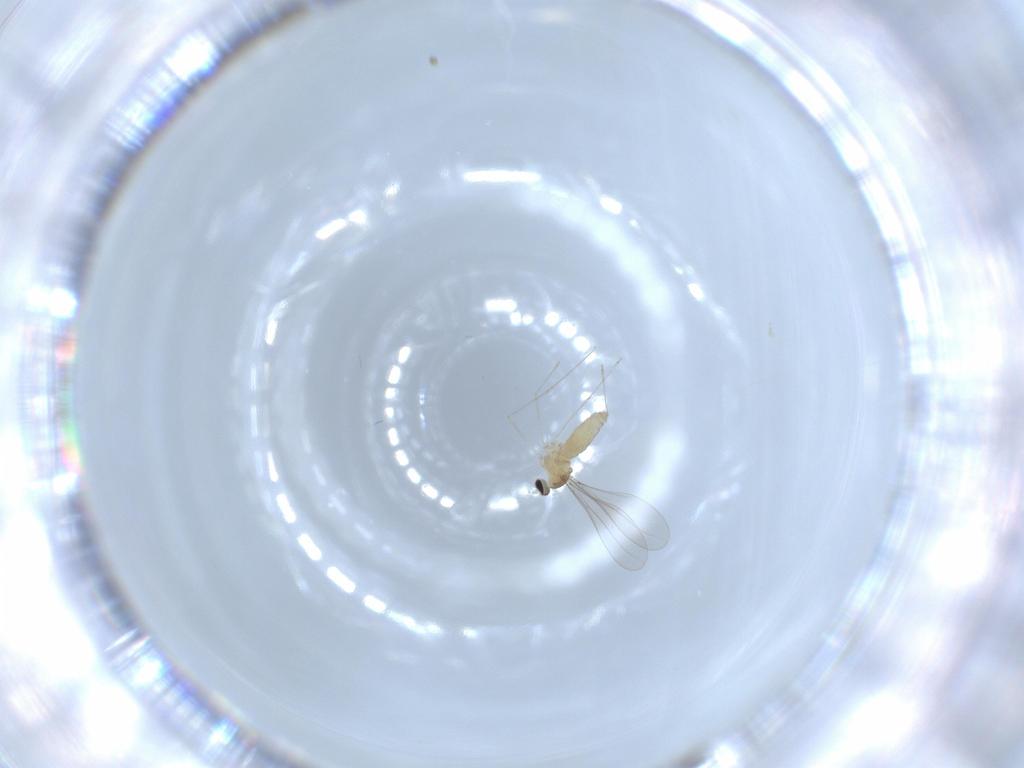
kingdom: Animalia
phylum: Arthropoda
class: Insecta
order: Diptera
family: Cecidomyiidae
